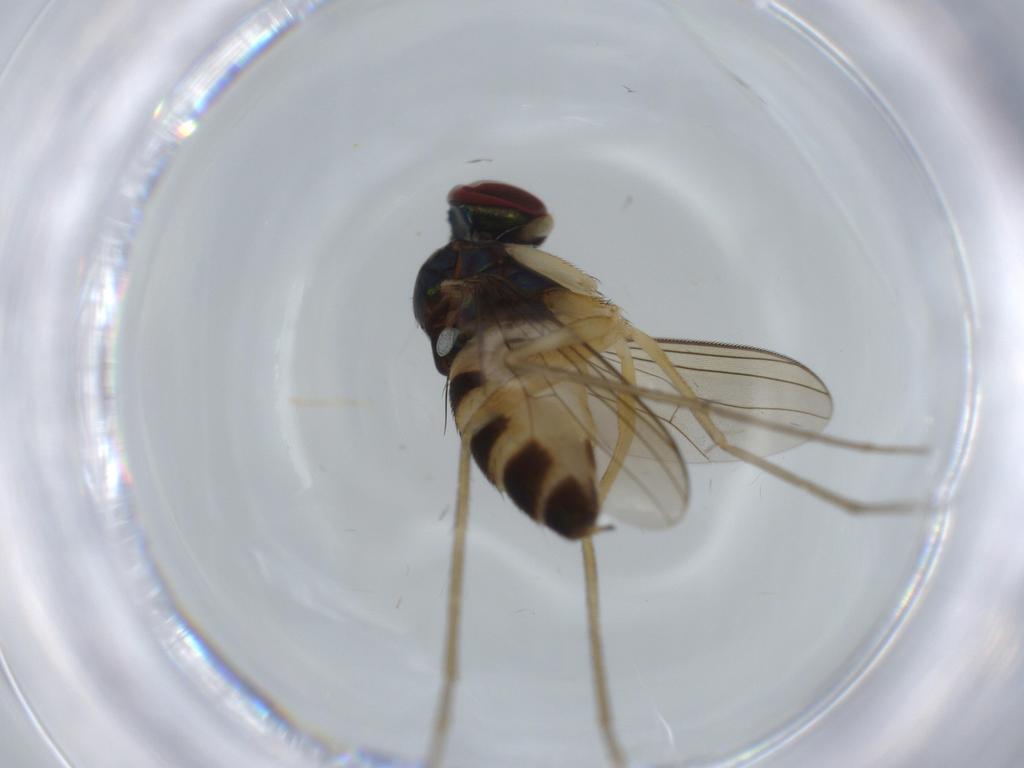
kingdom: Animalia
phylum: Arthropoda
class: Insecta
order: Diptera
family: Dolichopodidae
